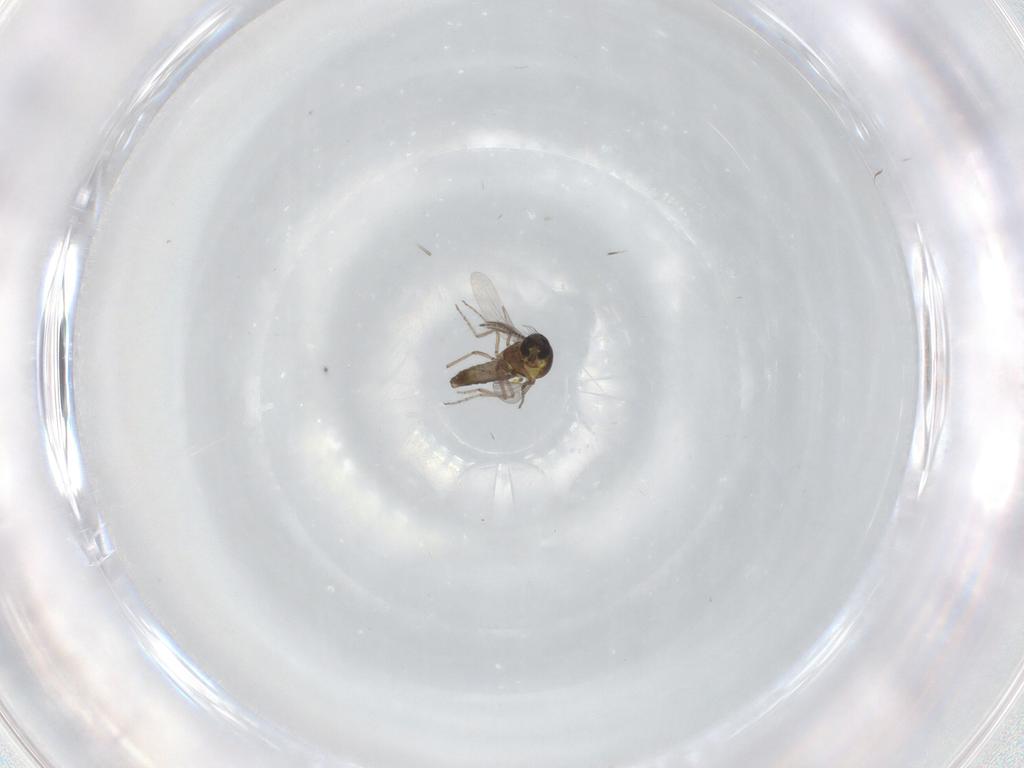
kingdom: Animalia
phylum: Arthropoda
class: Insecta
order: Diptera
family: Ceratopogonidae
